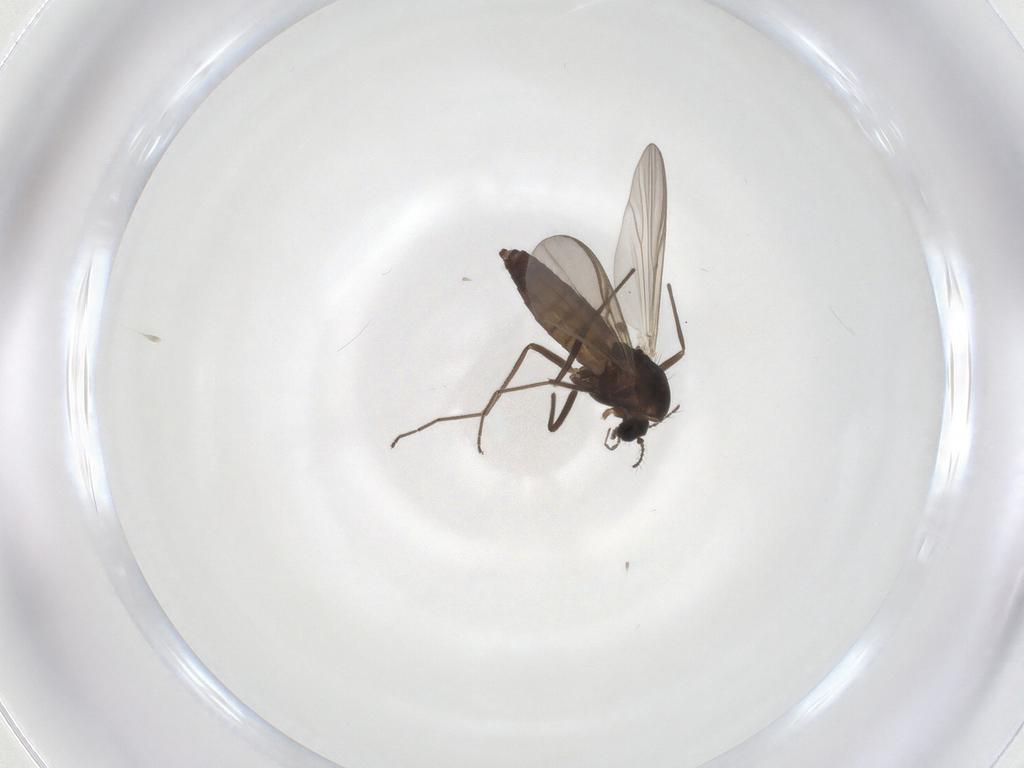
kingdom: Animalia
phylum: Arthropoda
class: Insecta
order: Diptera
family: Chironomidae
